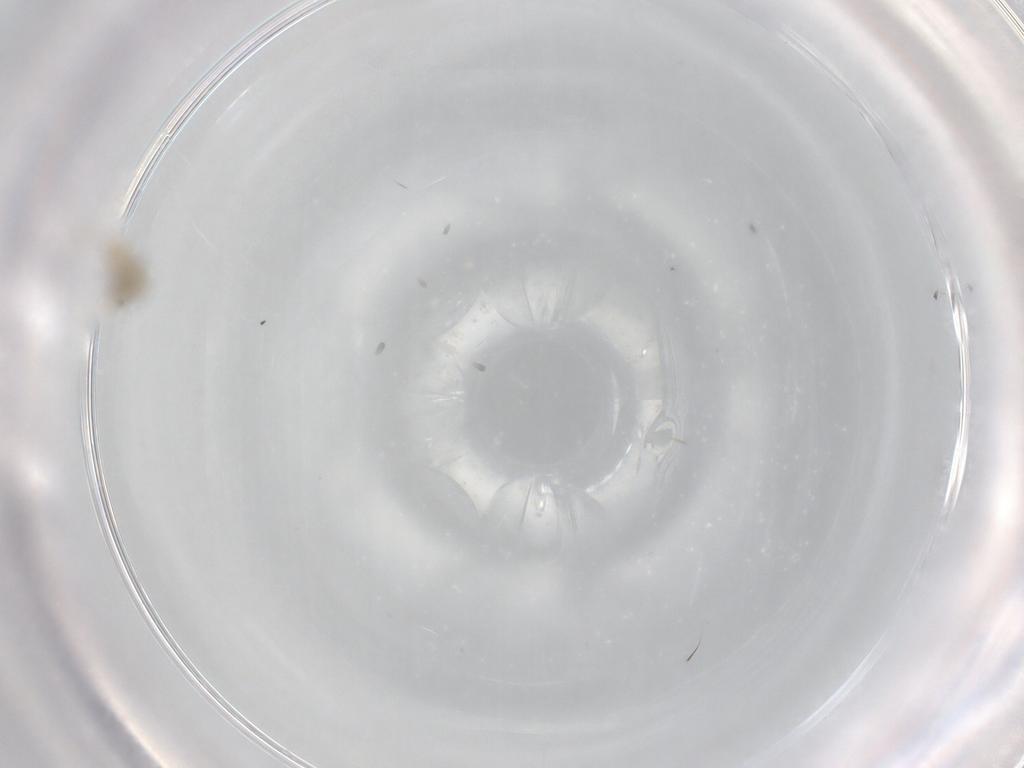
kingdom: Animalia
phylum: Arthropoda
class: Insecta
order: Diptera
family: Cecidomyiidae
